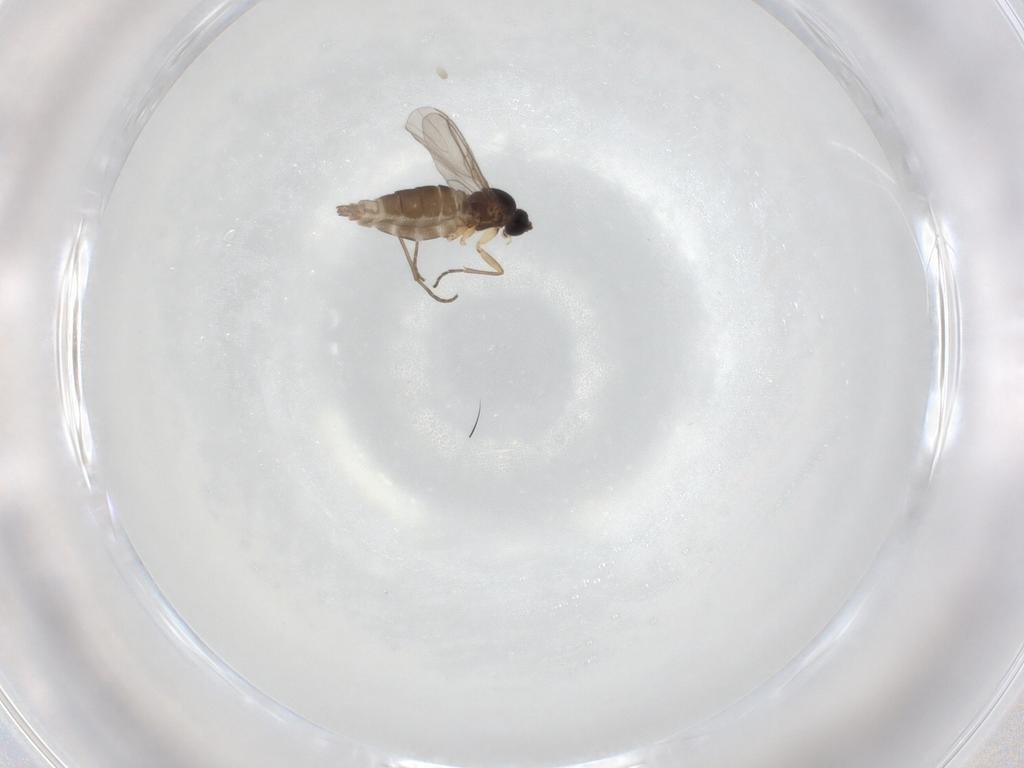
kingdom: Animalia
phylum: Arthropoda
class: Insecta
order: Diptera
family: Sciaridae
